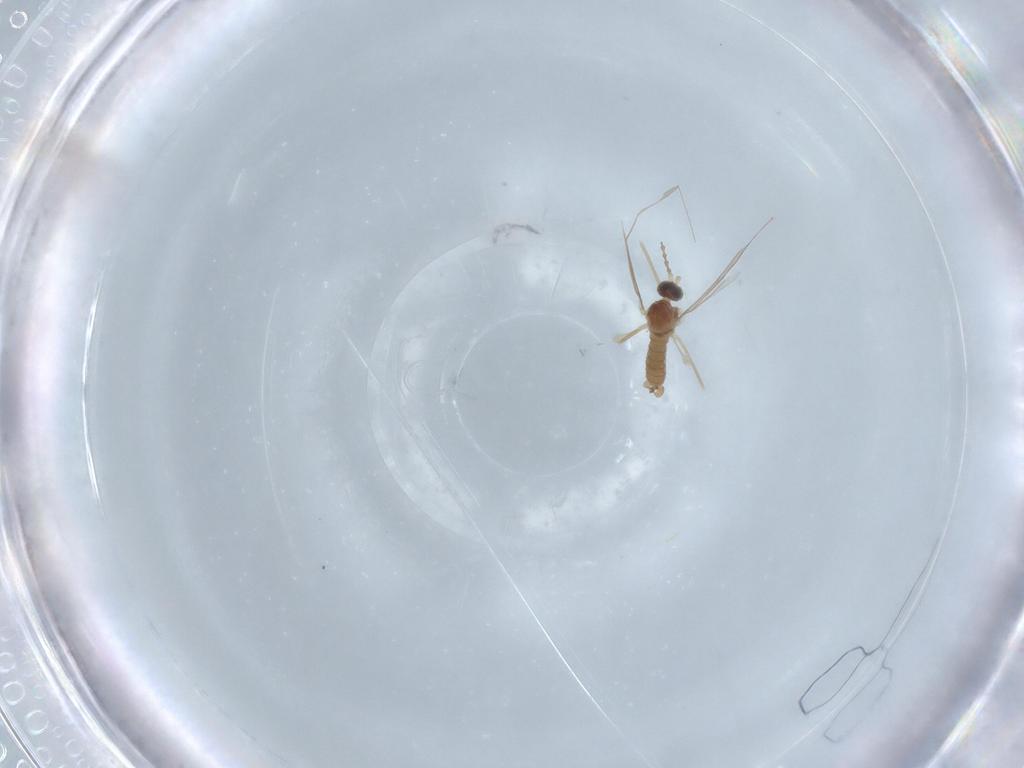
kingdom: Animalia
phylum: Arthropoda
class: Insecta
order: Diptera
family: Cecidomyiidae
